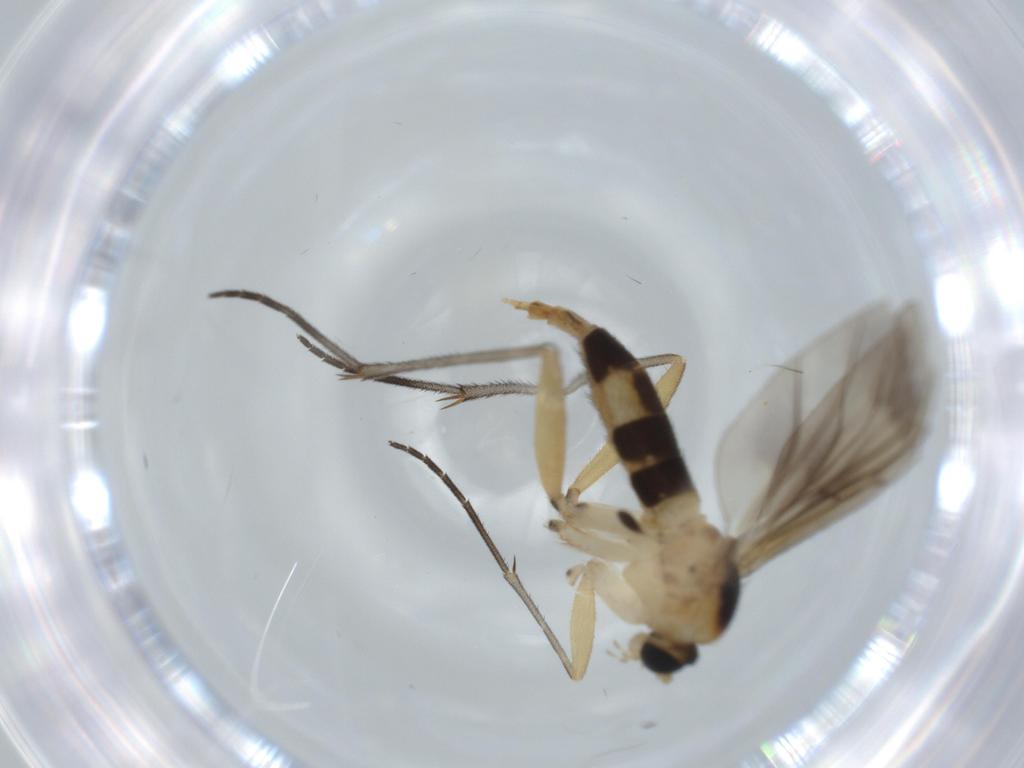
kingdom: Animalia
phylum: Arthropoda
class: Insecta
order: Diptera
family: Sciaridae
